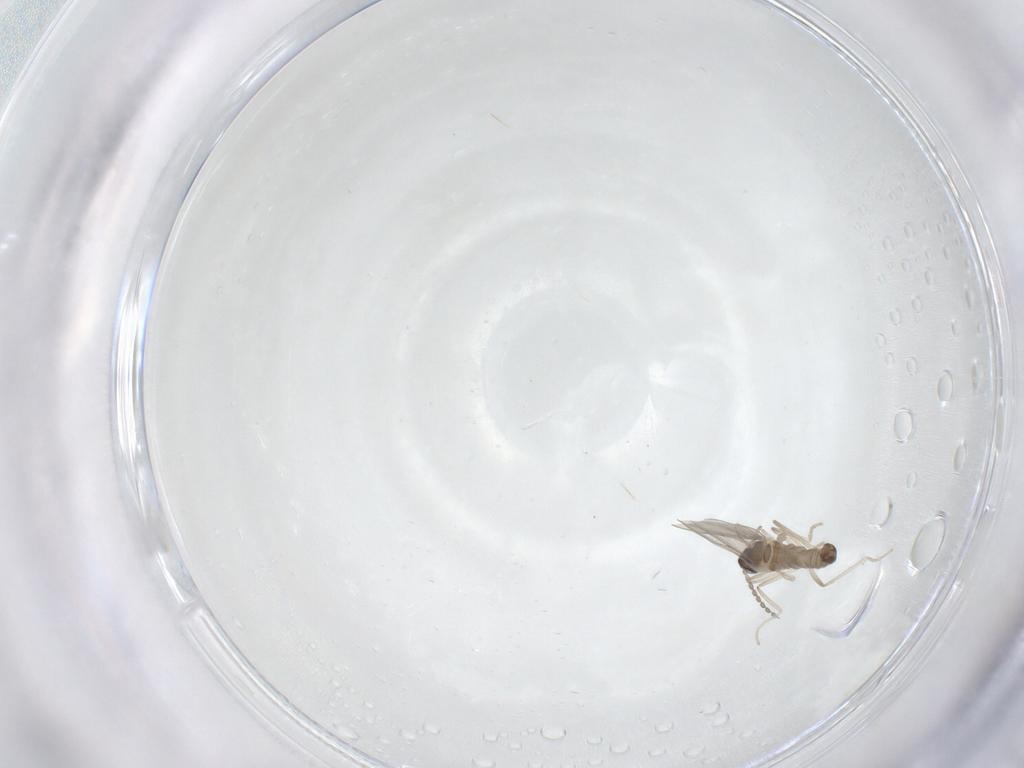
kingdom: Animalia
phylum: Arthropoda
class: Insecta
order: Diptera
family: Cecidomyiidae
